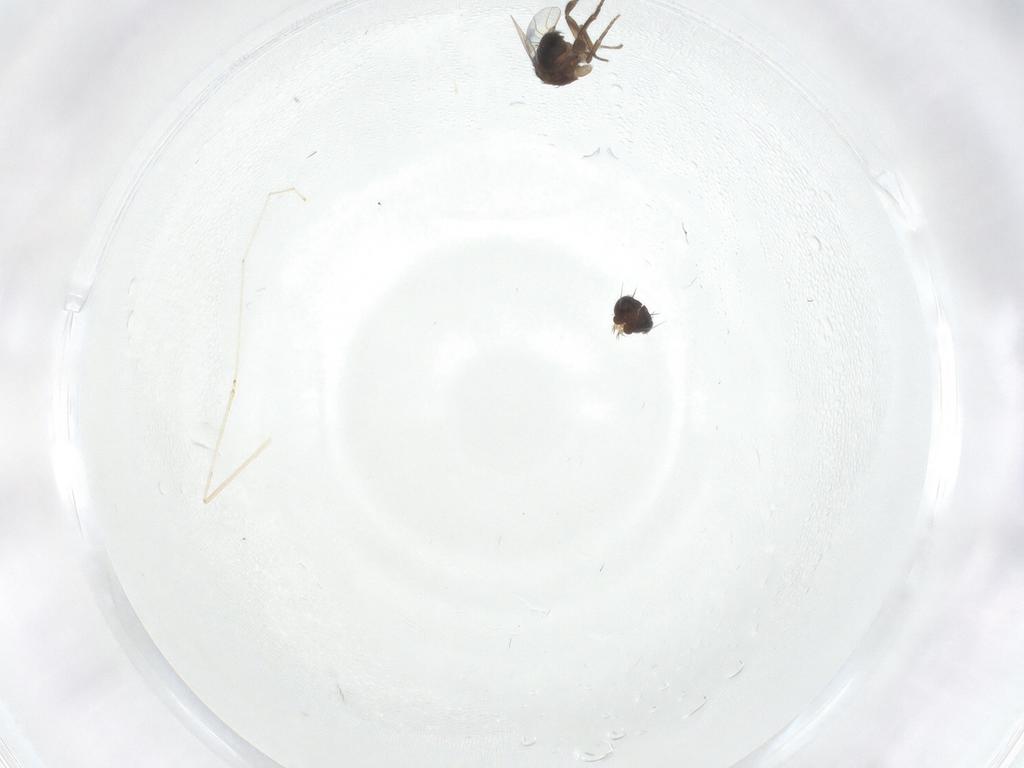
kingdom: Animalia
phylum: Arthropoda
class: Insecta
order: Diptera
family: Phoridae
